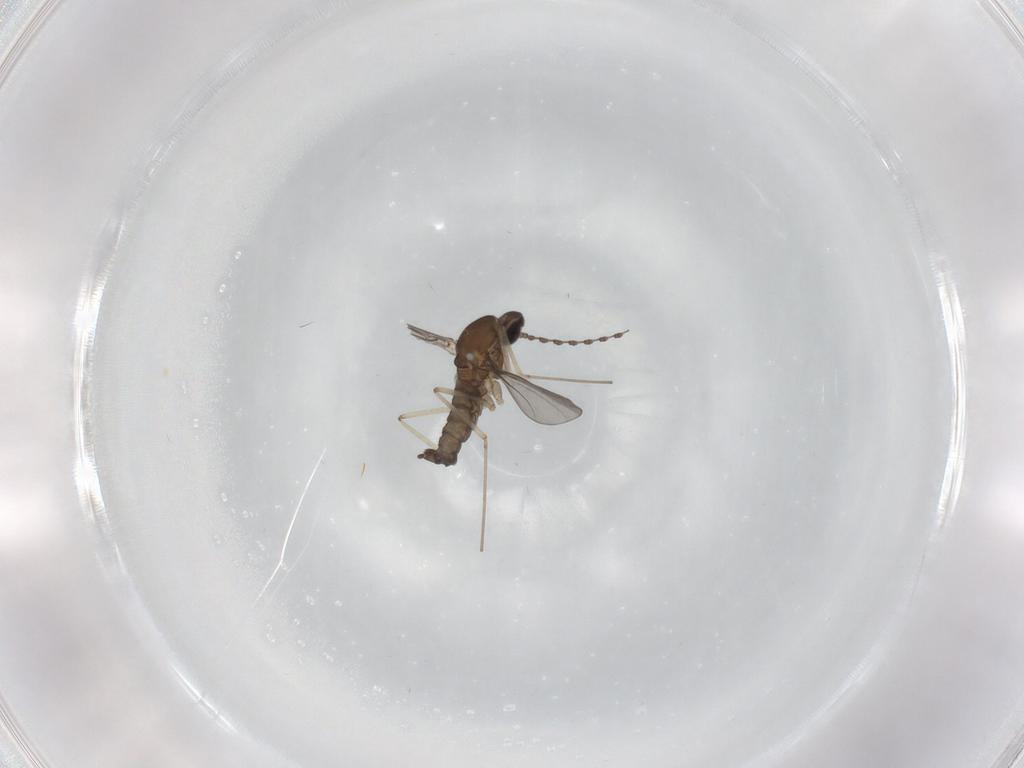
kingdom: Animalia
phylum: Arthropoda
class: Insecta
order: Diptera
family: Cecidomyiidae
